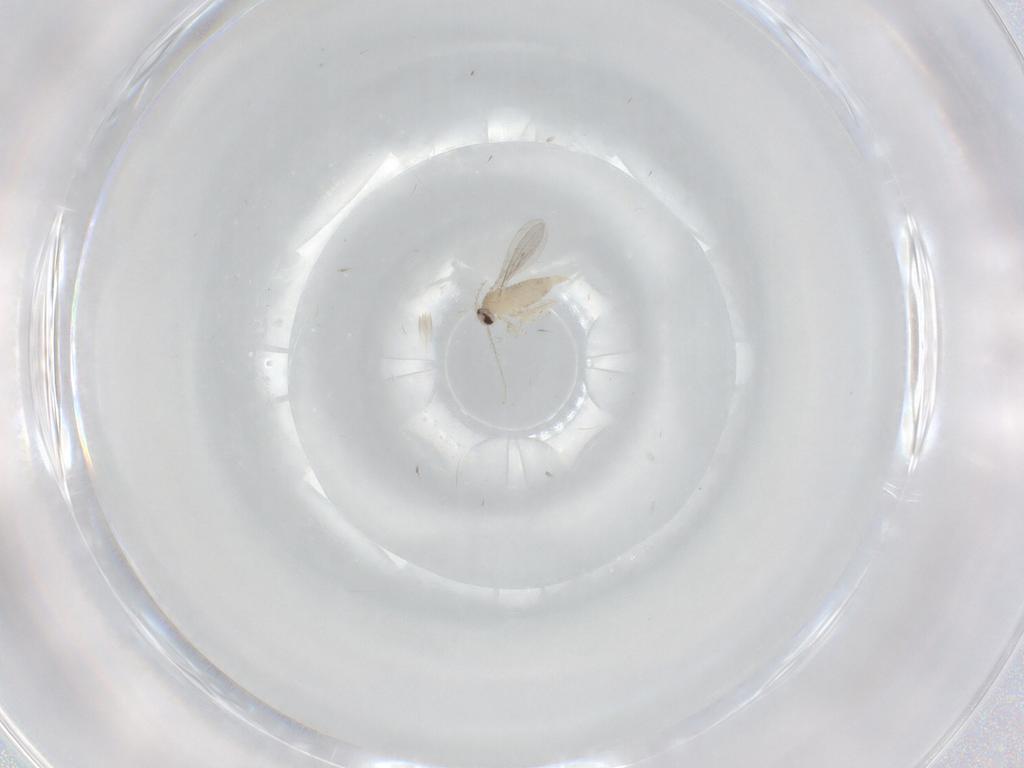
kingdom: Animalia
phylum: Arthropoda
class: Insecta
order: Diptera
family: Cecidomyiidae
